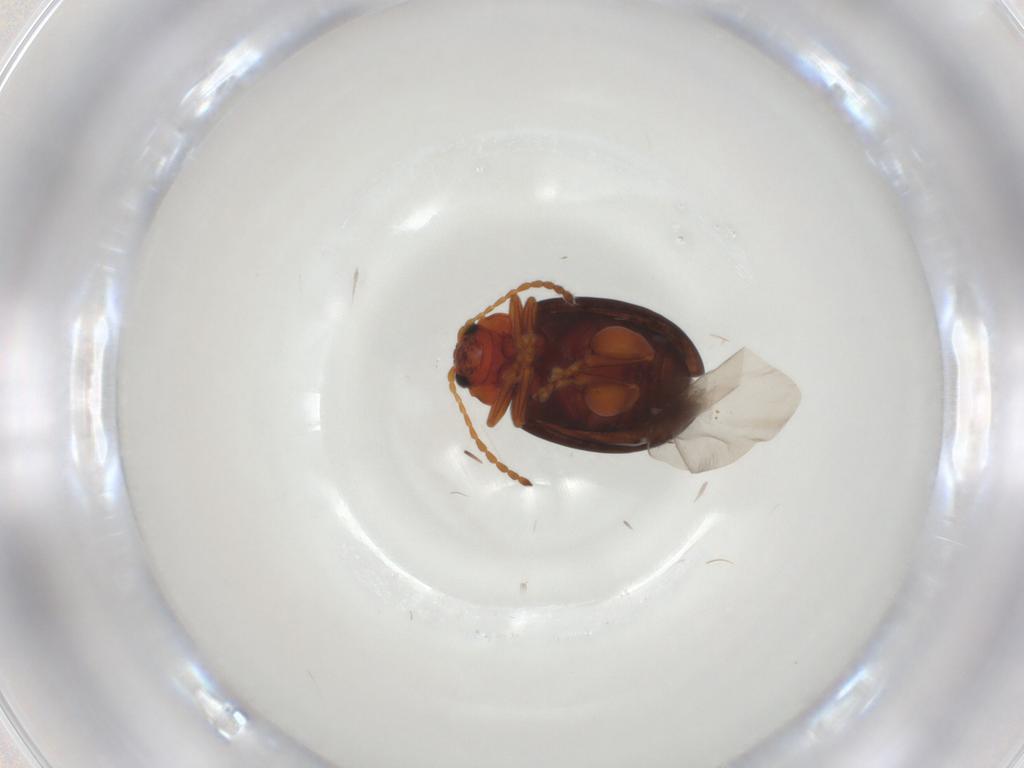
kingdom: Animalia
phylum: Arthropoda
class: Insecta
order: Coleoptera
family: Chrysomelidae
